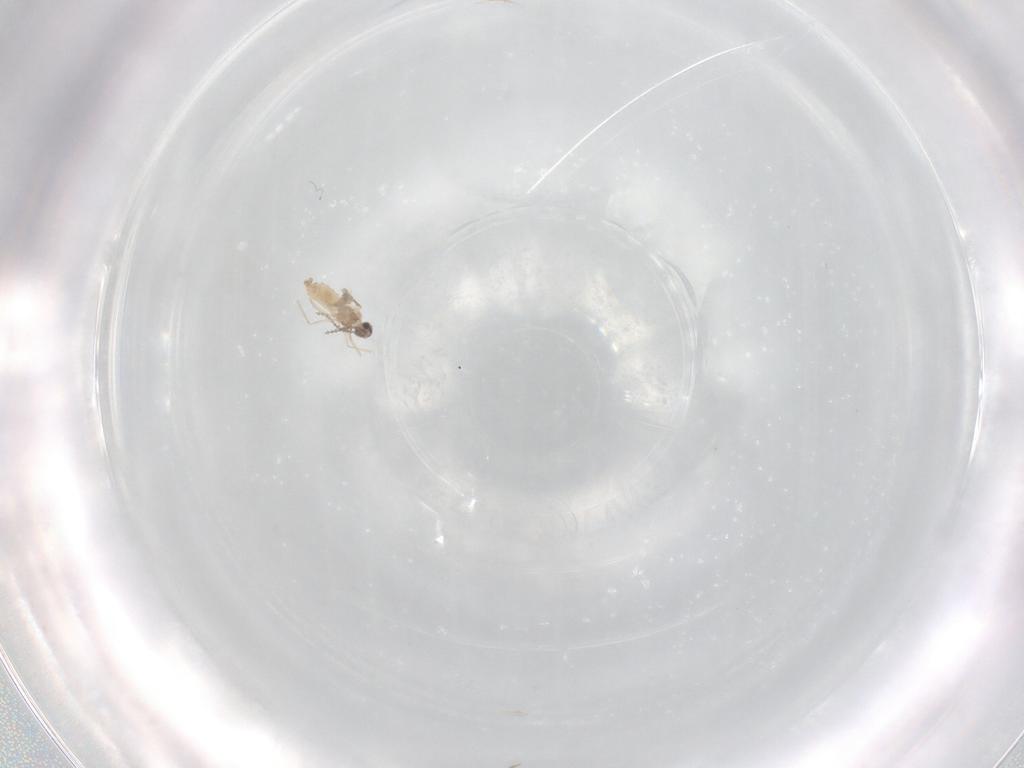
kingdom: Animalia
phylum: Arthropoda
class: Insecta
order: Diptera
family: Cecidomyiidae
